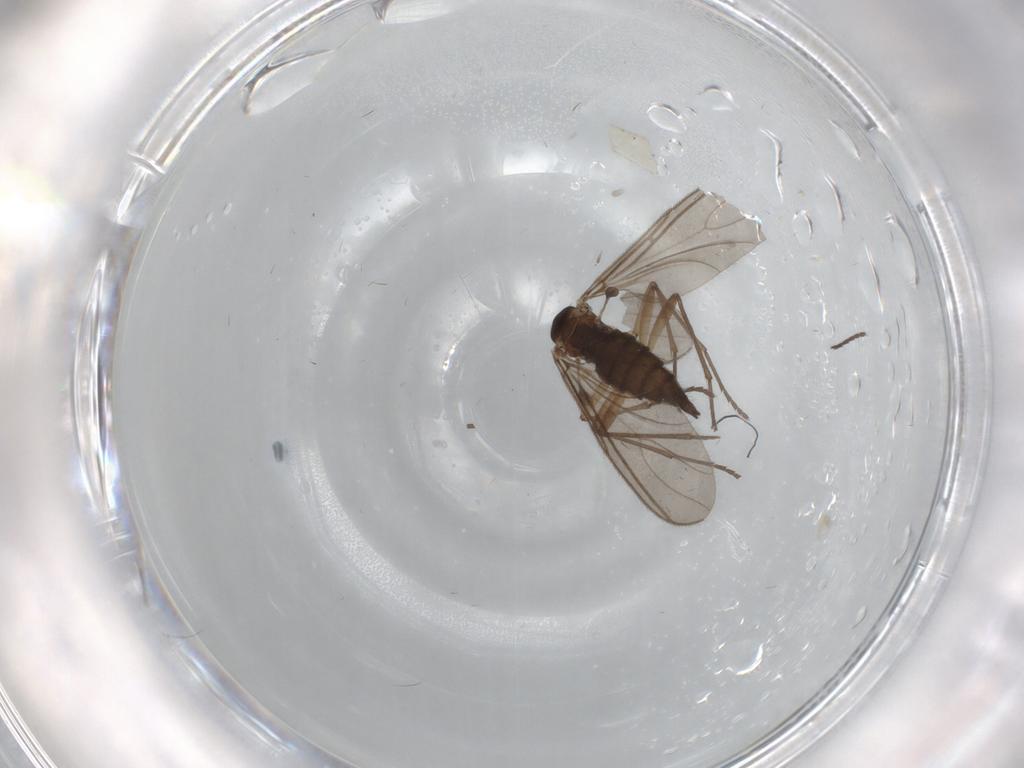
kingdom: Animalia
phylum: Arthropoda
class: Insecta
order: Diptera
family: Sciaridae
